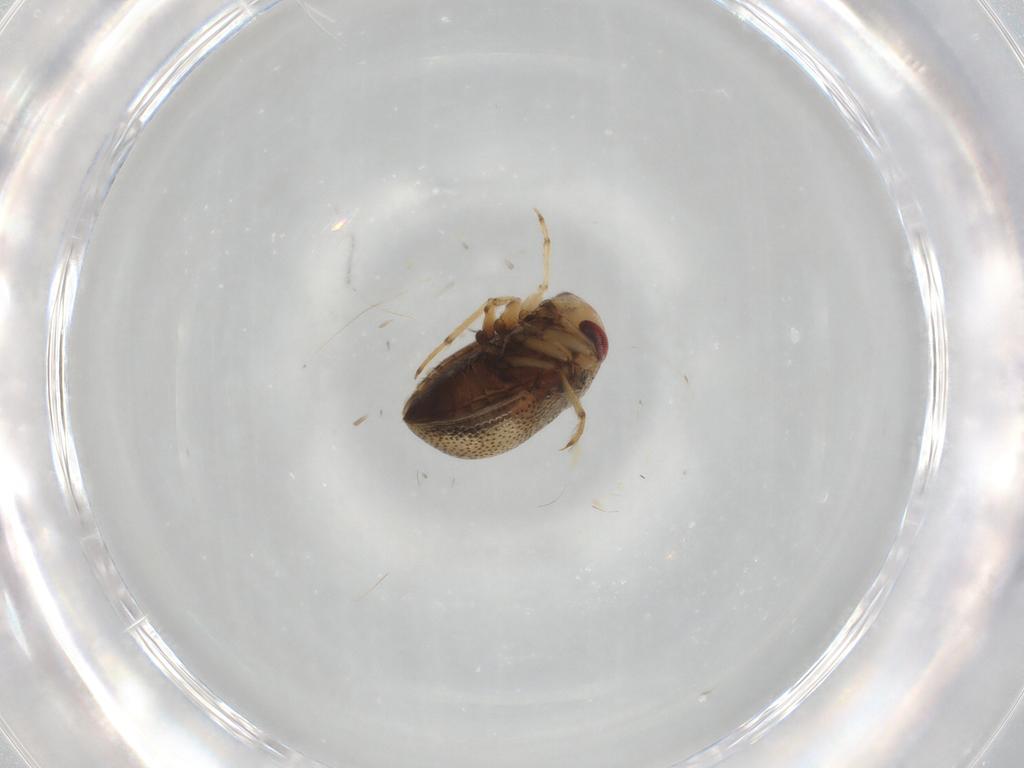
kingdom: Animalia
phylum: Arthropoda
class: Insecta
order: Hemiptera
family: Pleidae
